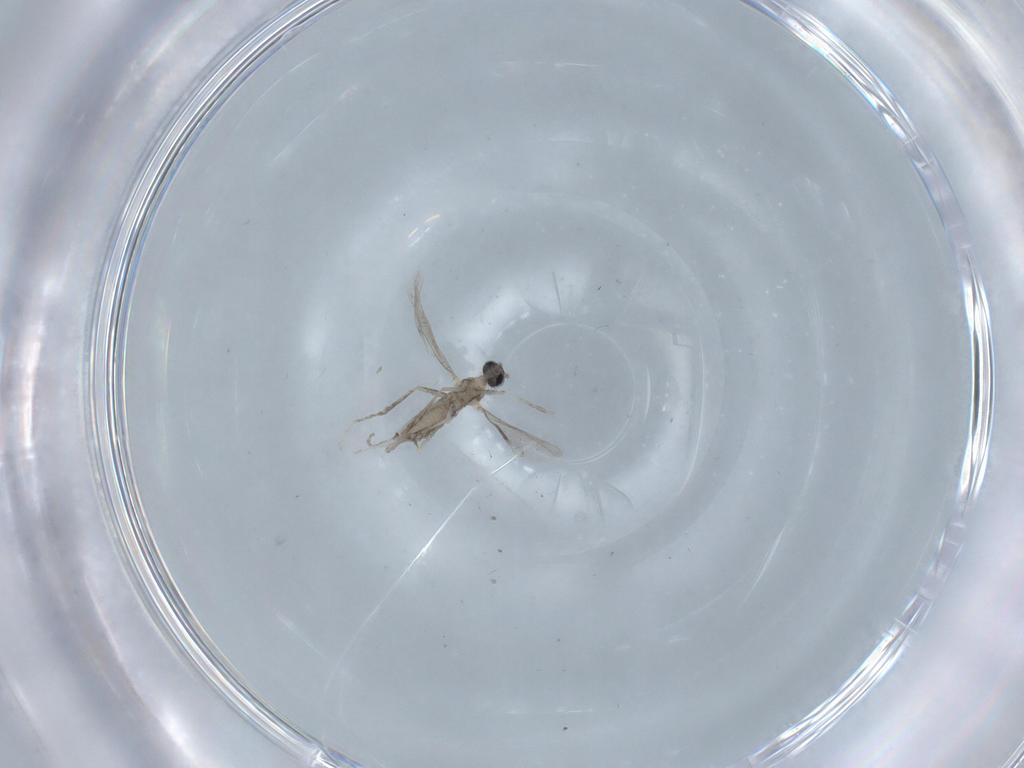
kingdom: Animalia
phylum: Arthropoda
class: Insecta
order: Diptera
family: Cecidomyiidae
